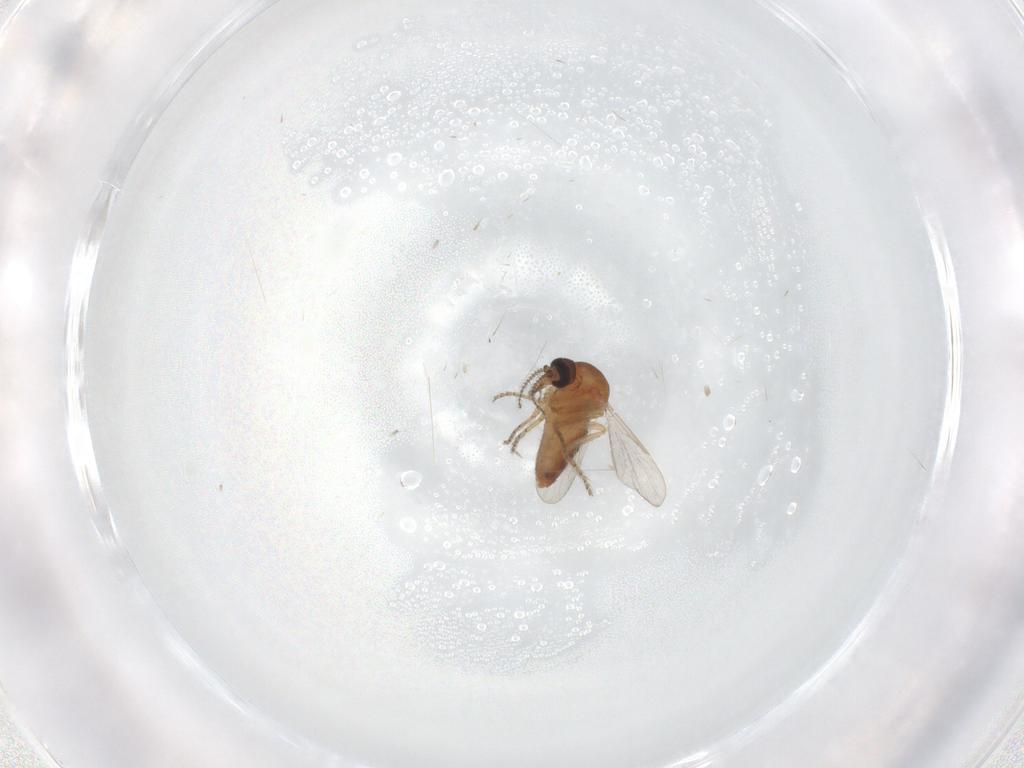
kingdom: Animalia
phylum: Arthropoda
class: Insecta
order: Diptera
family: Ceratopogonidae
